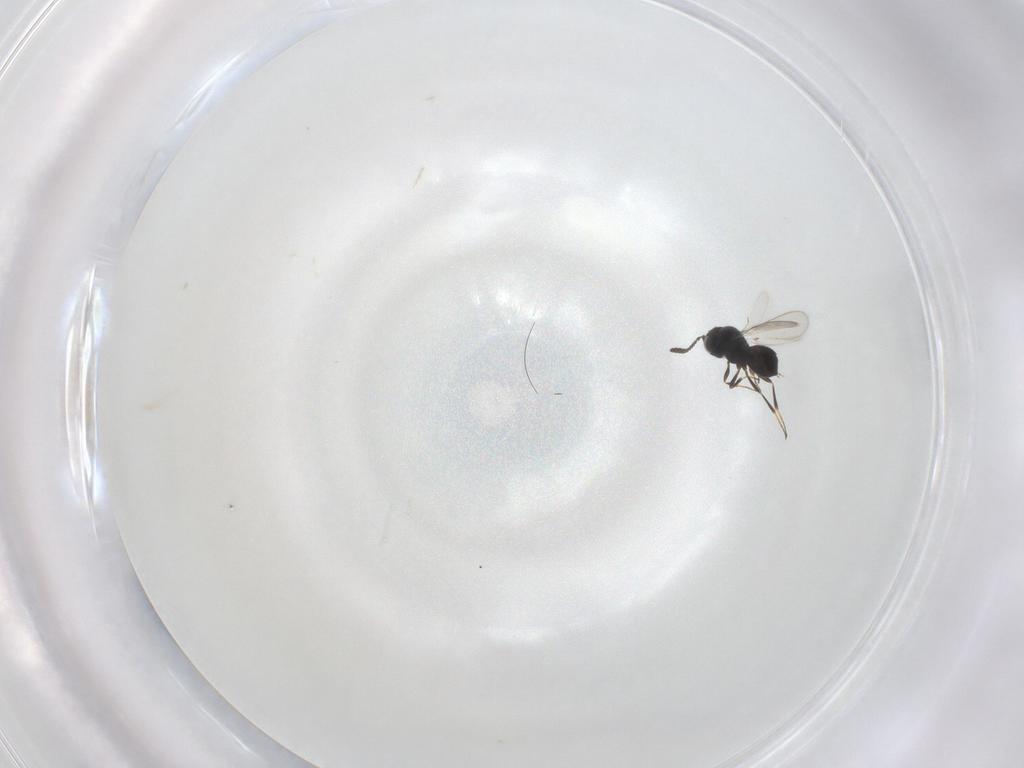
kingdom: Animalia
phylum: Arthropoda
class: Insecta
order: Hymenoptera
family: Scelionidae
